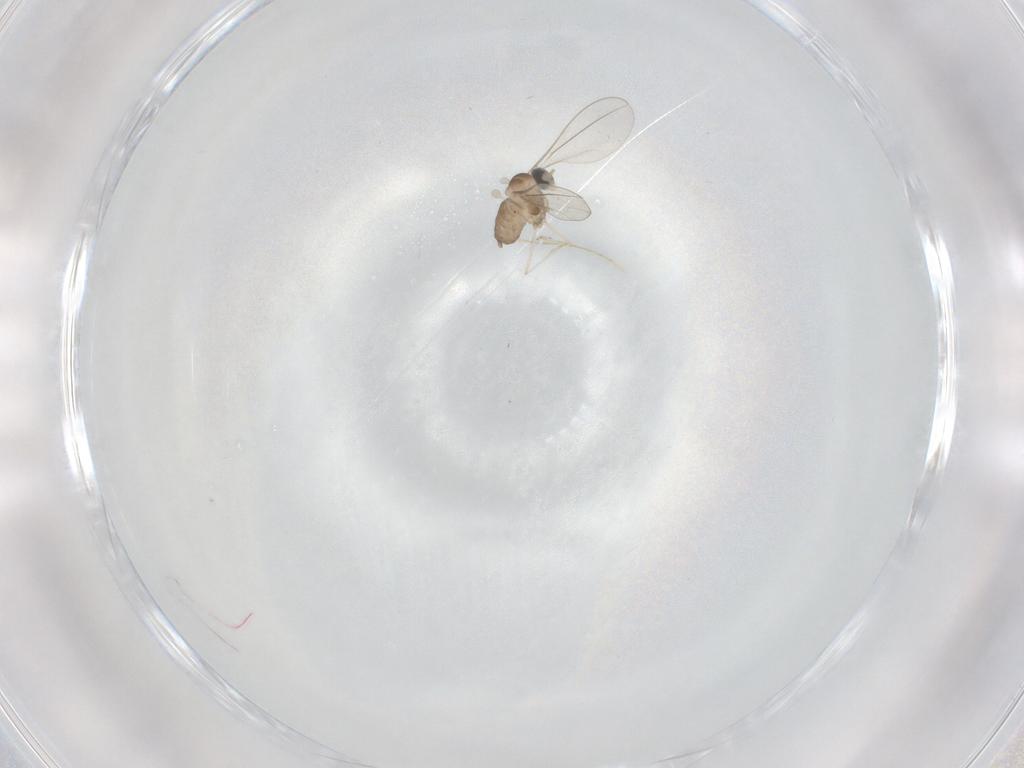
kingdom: Animalia
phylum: Arthropoda
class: Insecta
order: Diptera
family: Cecidomyiidae
